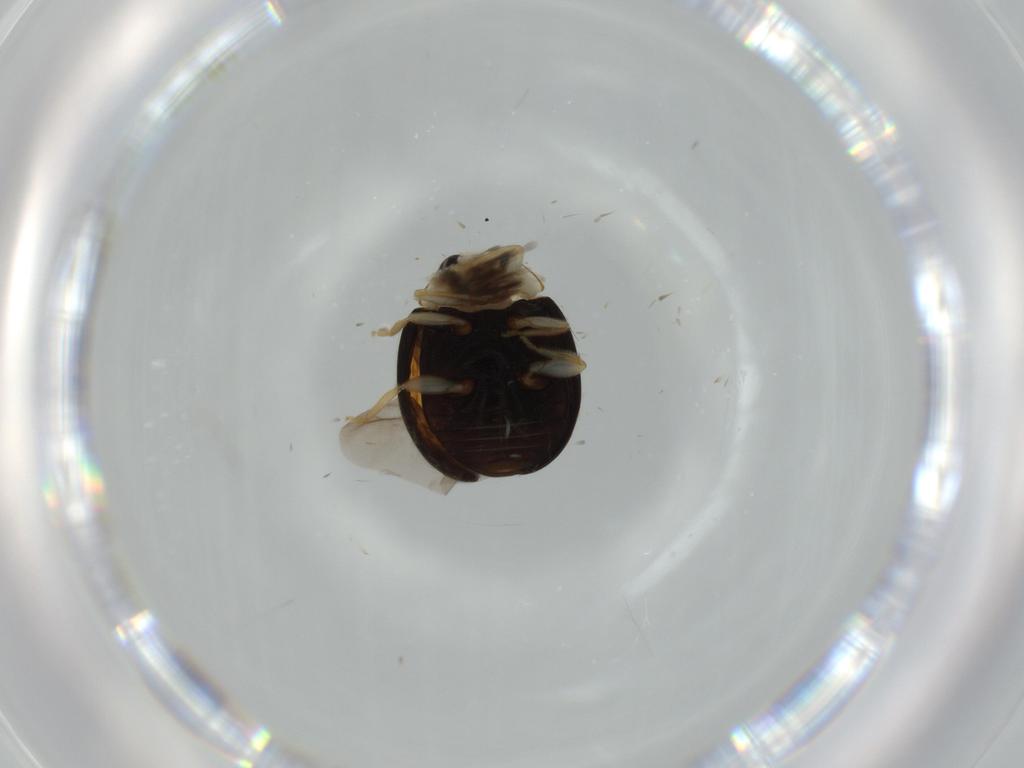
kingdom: Animalia
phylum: Arthropoda
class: Insecta
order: Coleoptera
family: Coccinellidae
